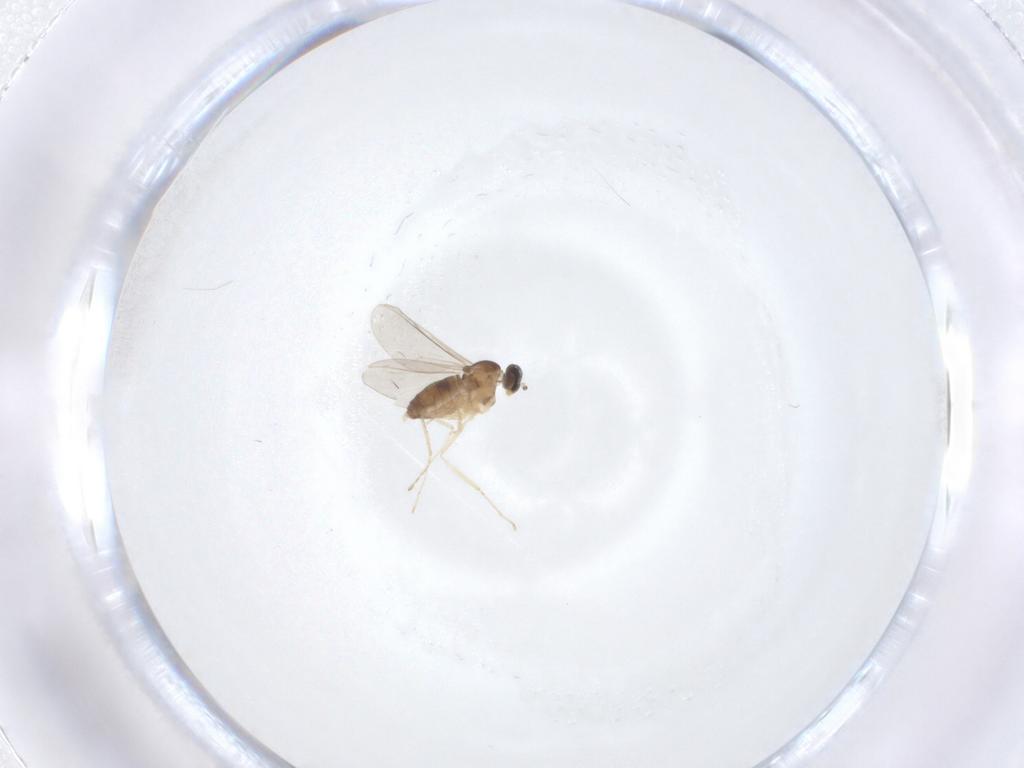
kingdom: Animalia
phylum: Arthropoda
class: Insecta
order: Diptera
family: Cecidomyiidae
